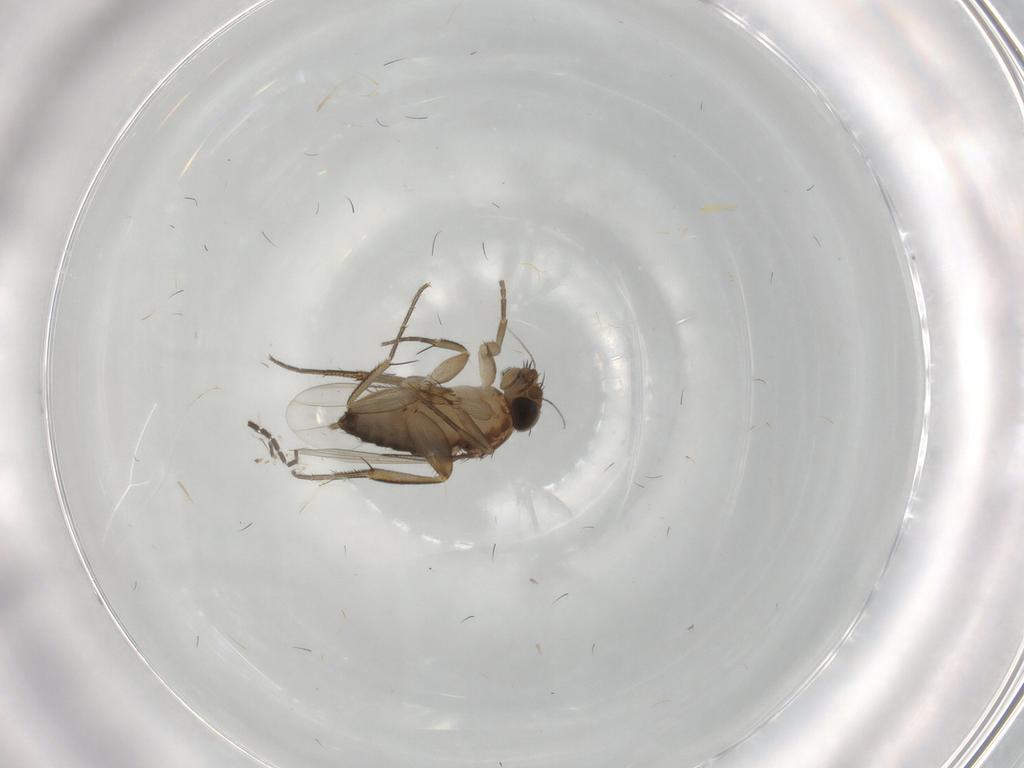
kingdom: Animalia
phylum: Arthropoda
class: Insecta
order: Diptera
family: Phoridae
